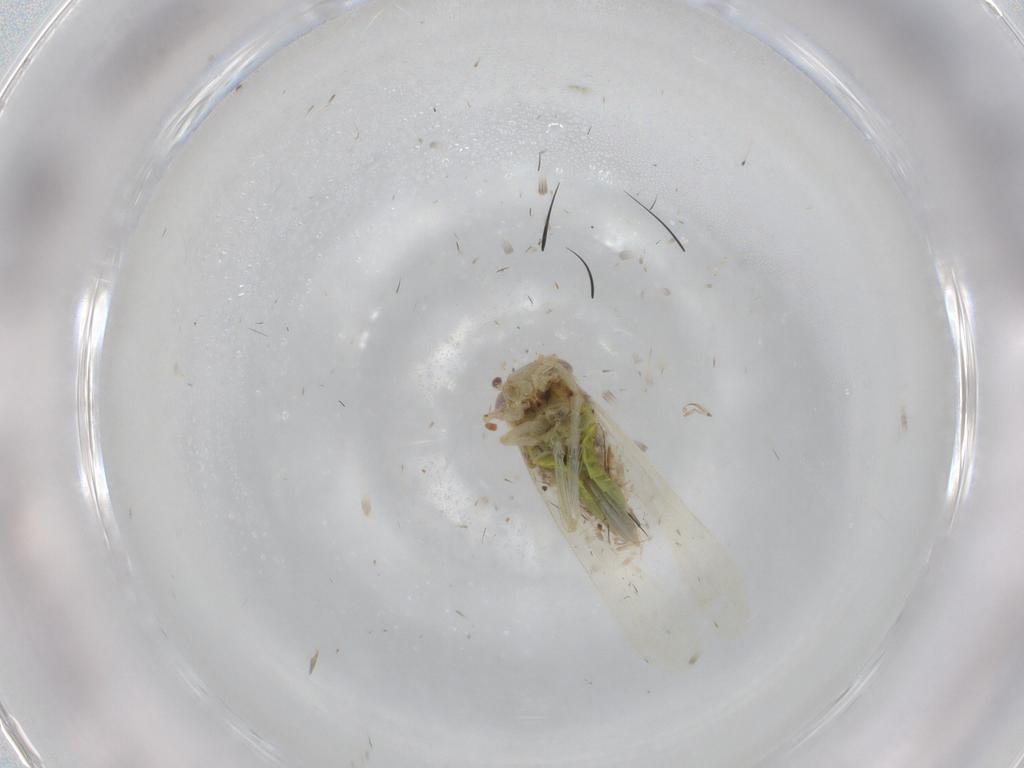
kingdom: Animalia
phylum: Arthropoda
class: Insecta
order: Hemiptera
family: Cicadellidae
